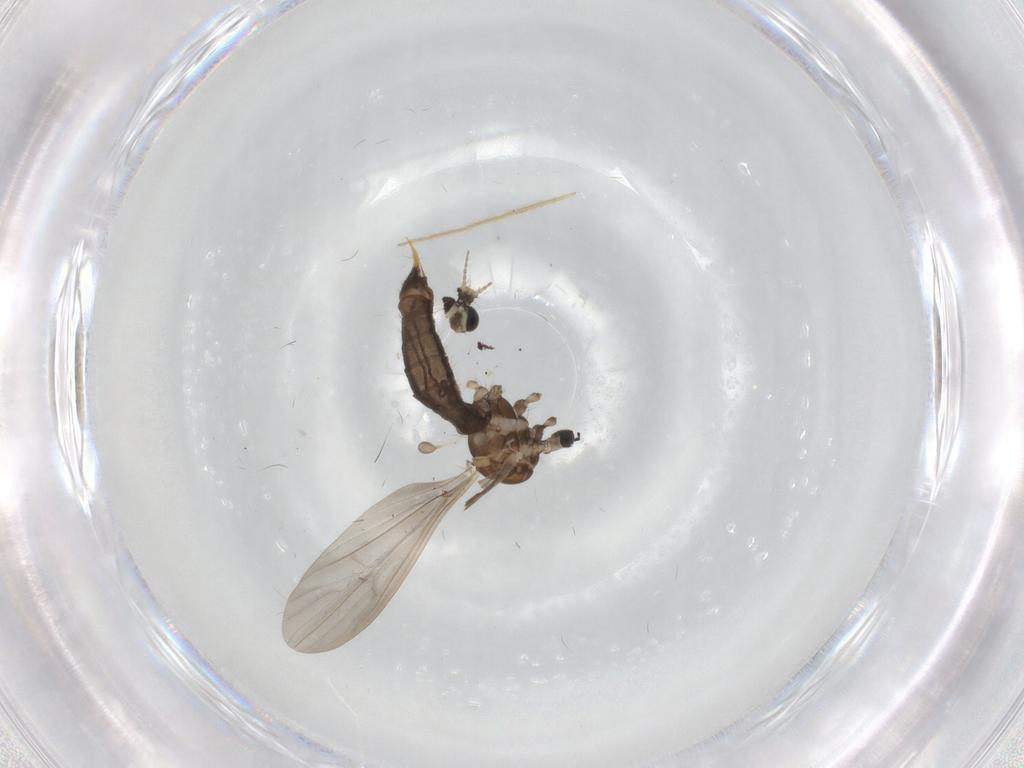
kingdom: Animalia
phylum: Arthropoda
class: Insecta
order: Diptera
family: Limoniidae
